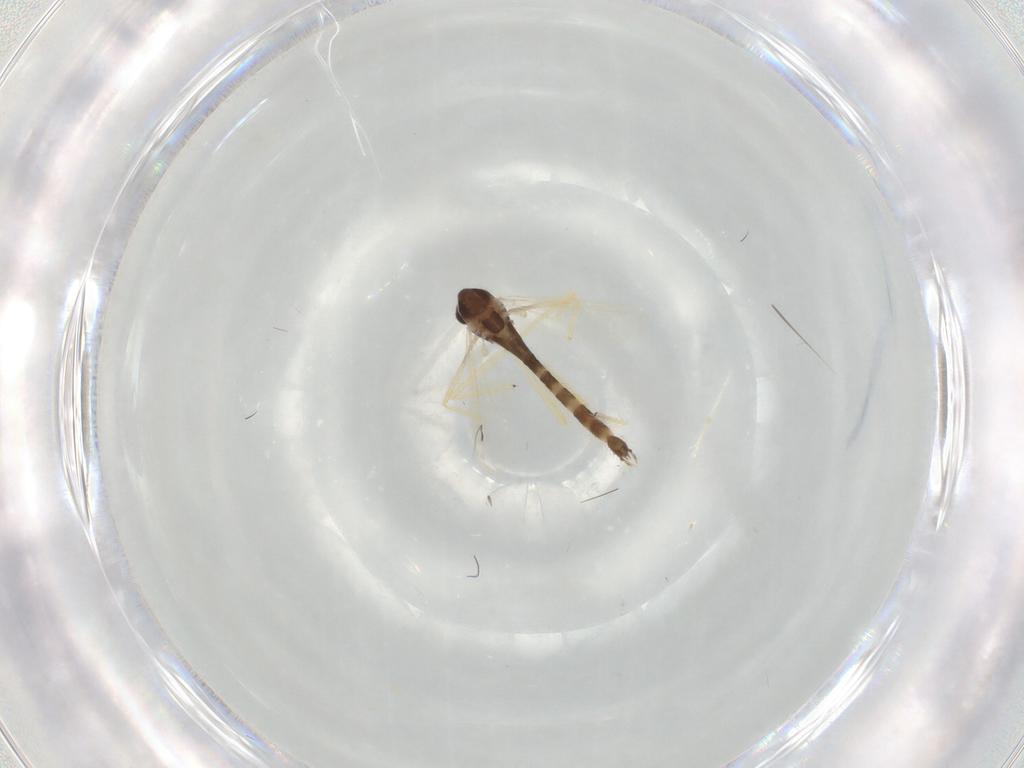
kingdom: Animalia
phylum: Arthropoda
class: Insecta
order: Diptera
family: Chironomidae
